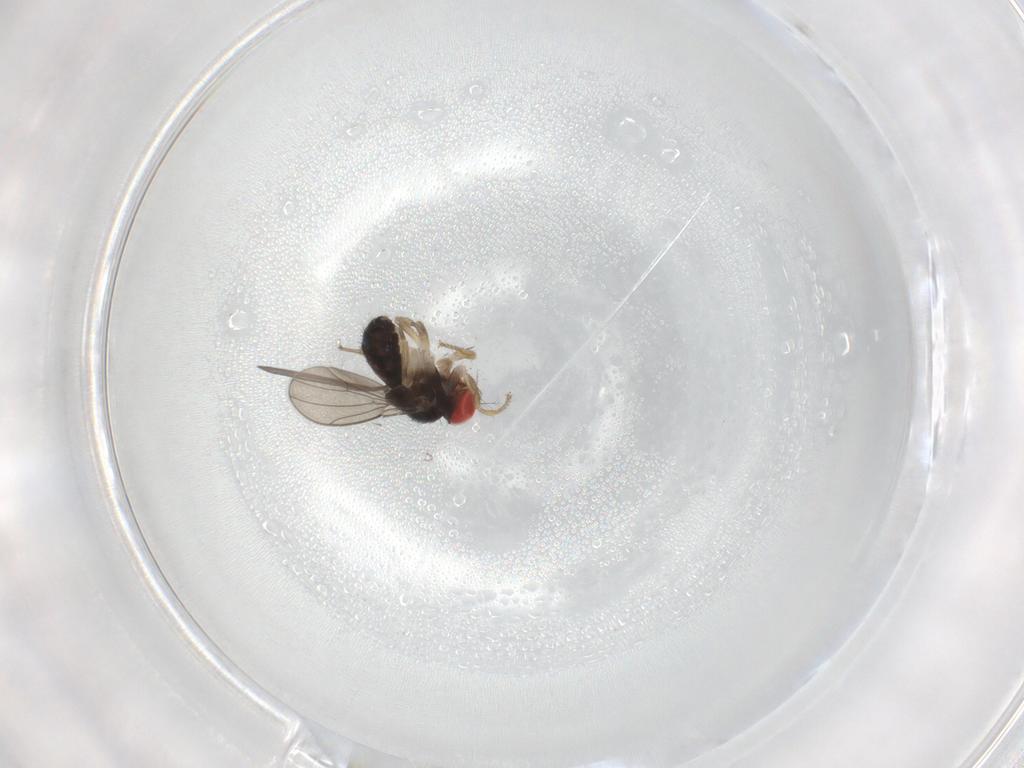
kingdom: Animalia
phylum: Arthropoda
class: Insecta
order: Diptera
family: Drosophilidae
